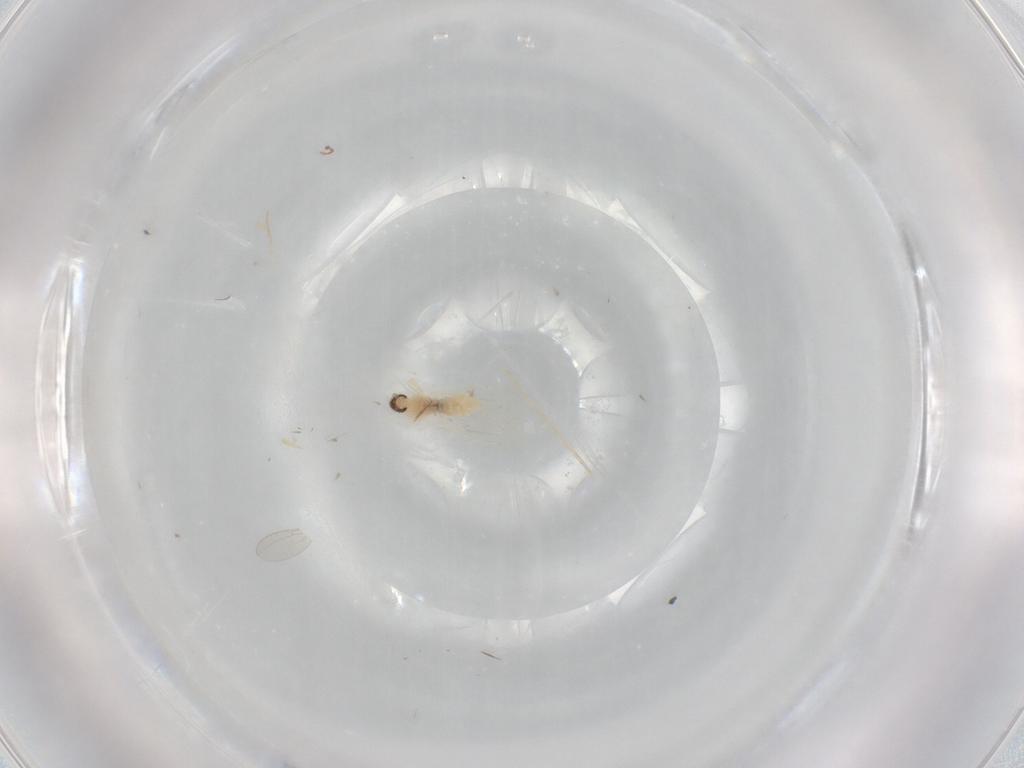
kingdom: Animalia
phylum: Arthropoda
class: Insecta
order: Diptera
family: Cecidomyiidae
